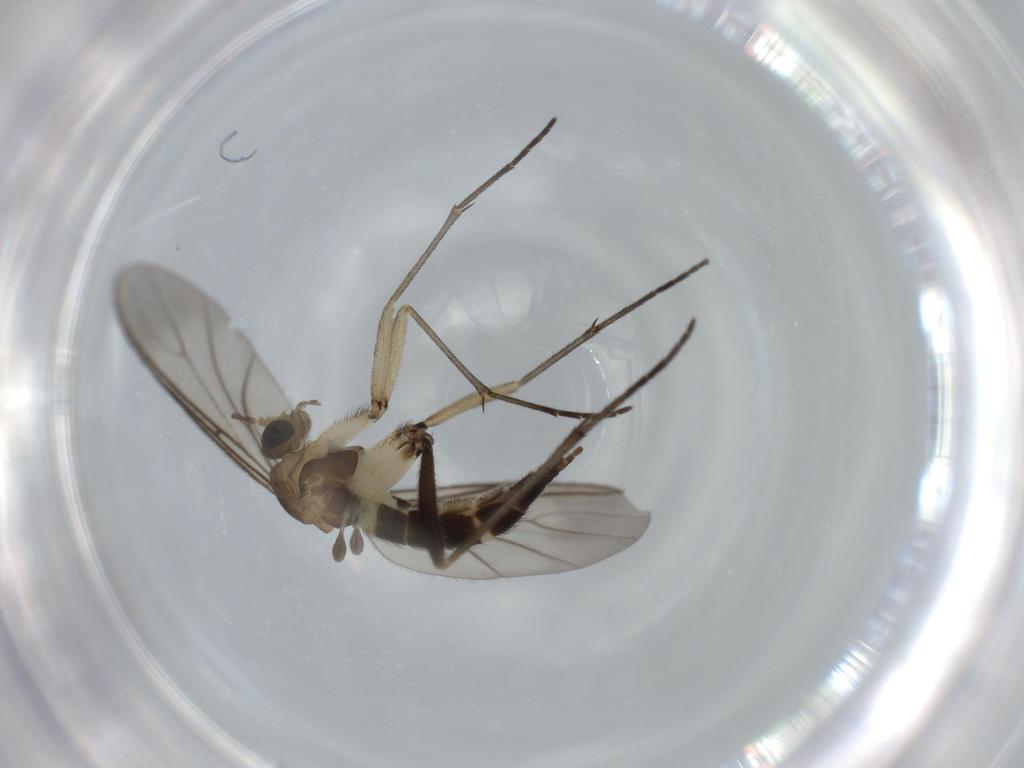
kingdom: Animalia
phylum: Arthropoda
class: Insecta
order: Diptera
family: Sciaridae
